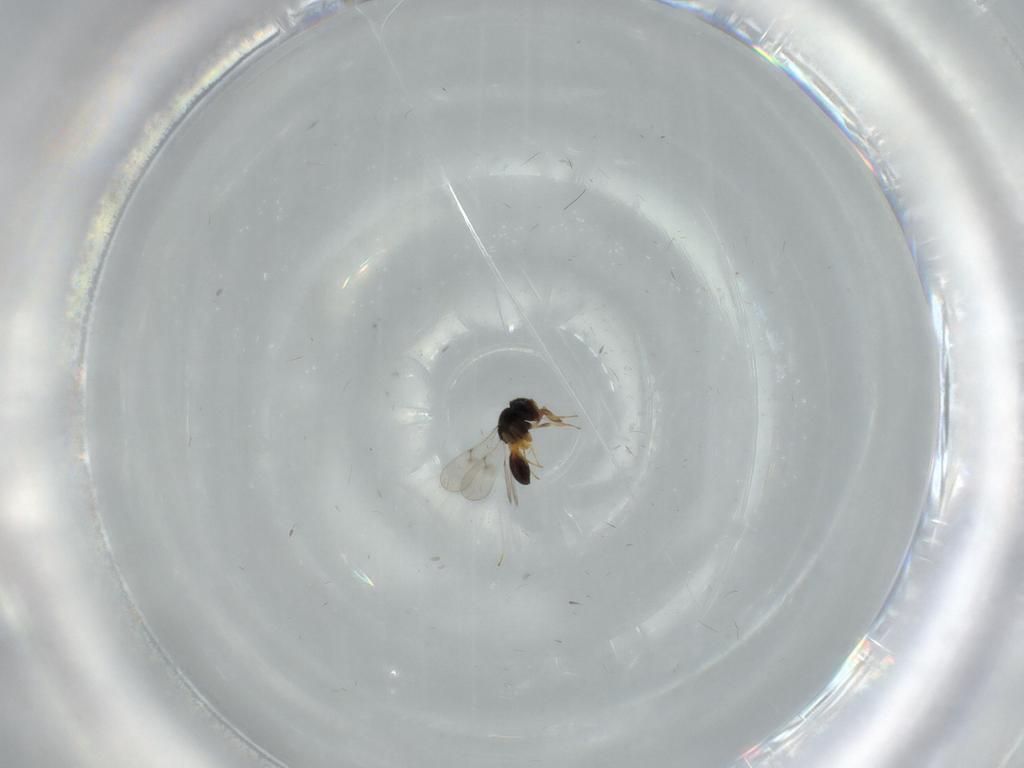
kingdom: Animalia
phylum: Arthropoda
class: Insecta
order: Hymenoptera
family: Scelionidae
